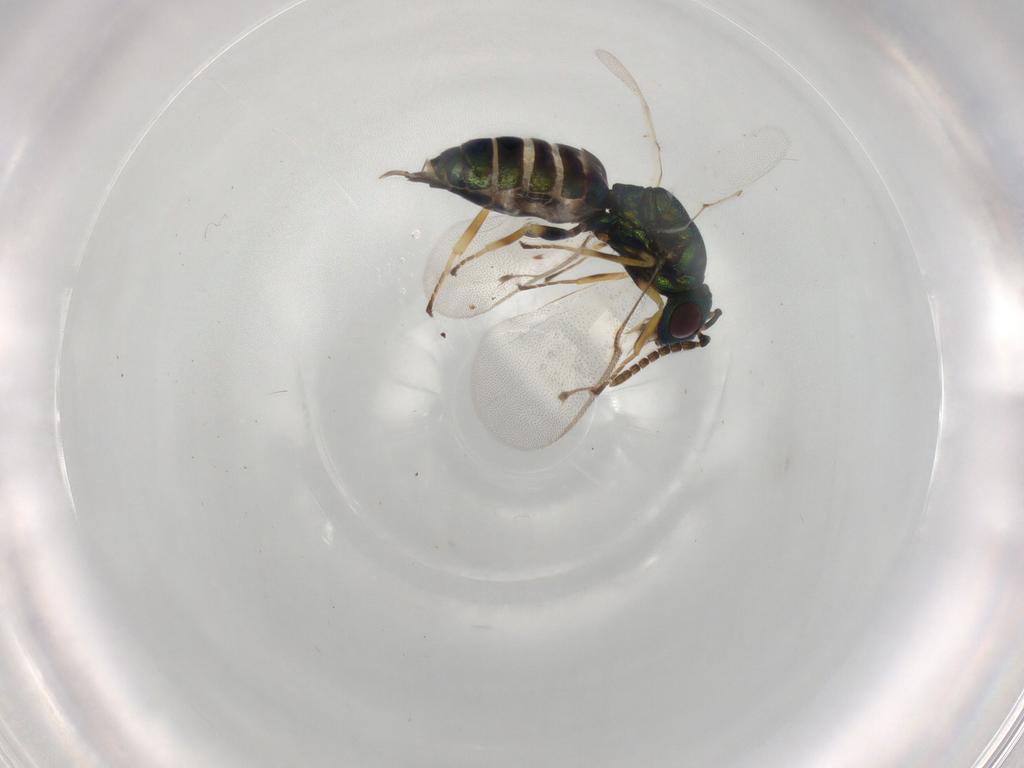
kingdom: Animalia
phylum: Arthropoda
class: Insecta
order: Hymenoptera
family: Pteromalidae
